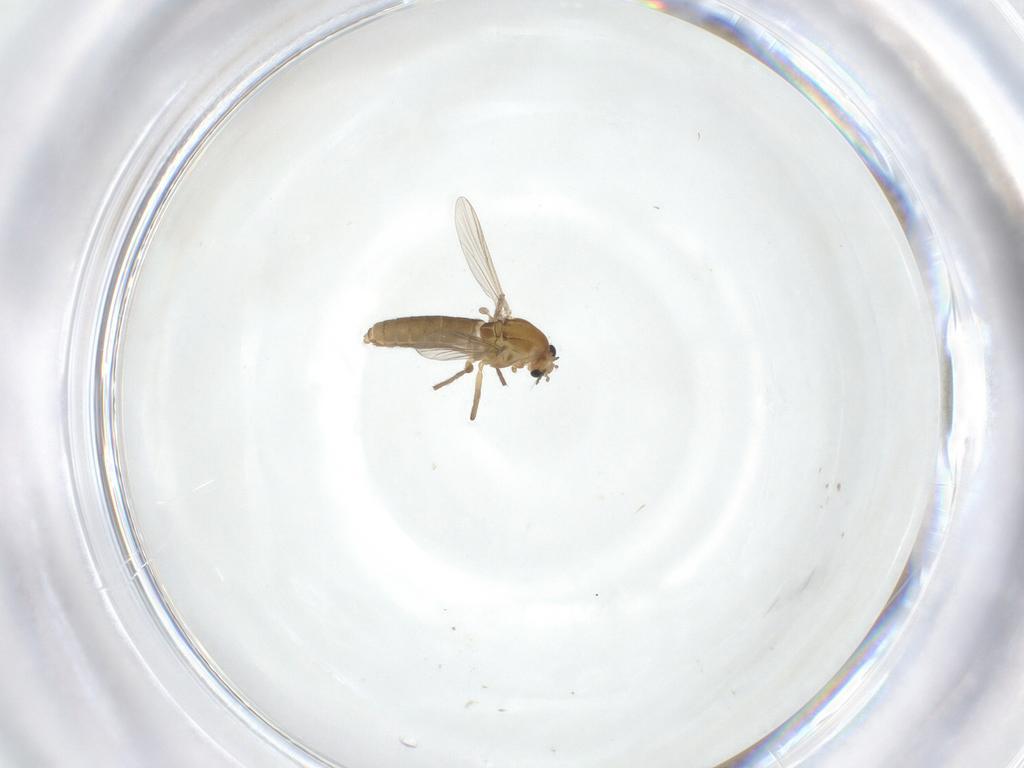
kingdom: Animalia
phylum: Arthropoda
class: Insecta
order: Diptera
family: Chironomidae
